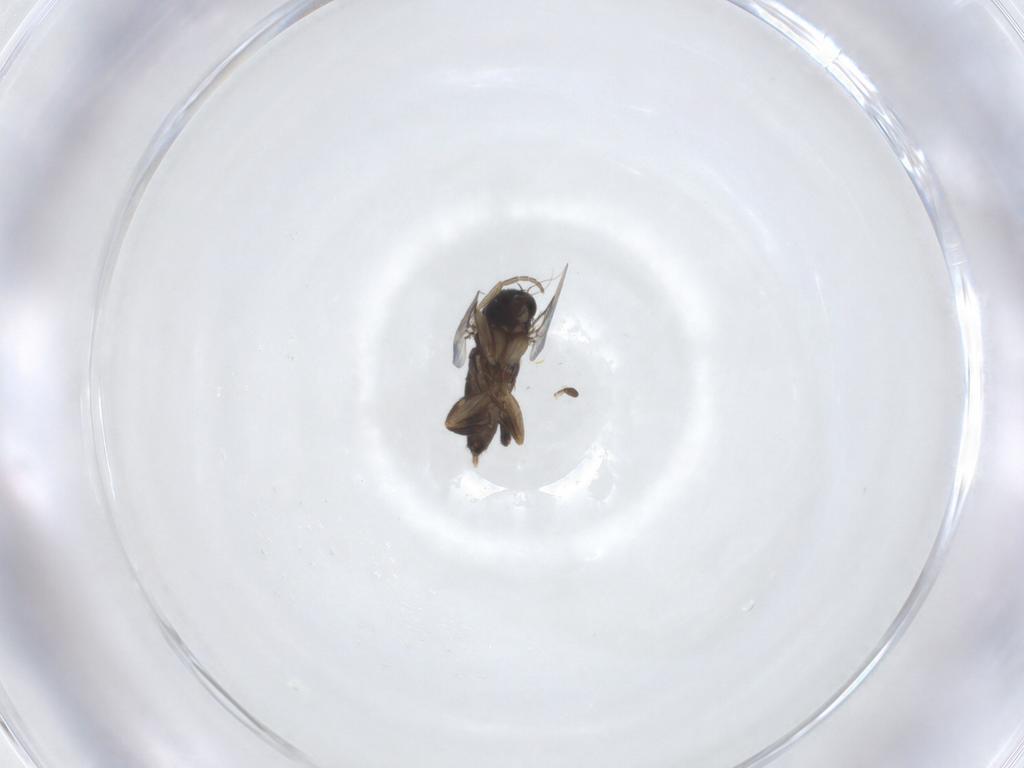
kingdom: Animalia
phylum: Arthropoda
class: Insecta
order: Diptera
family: Phoridae
